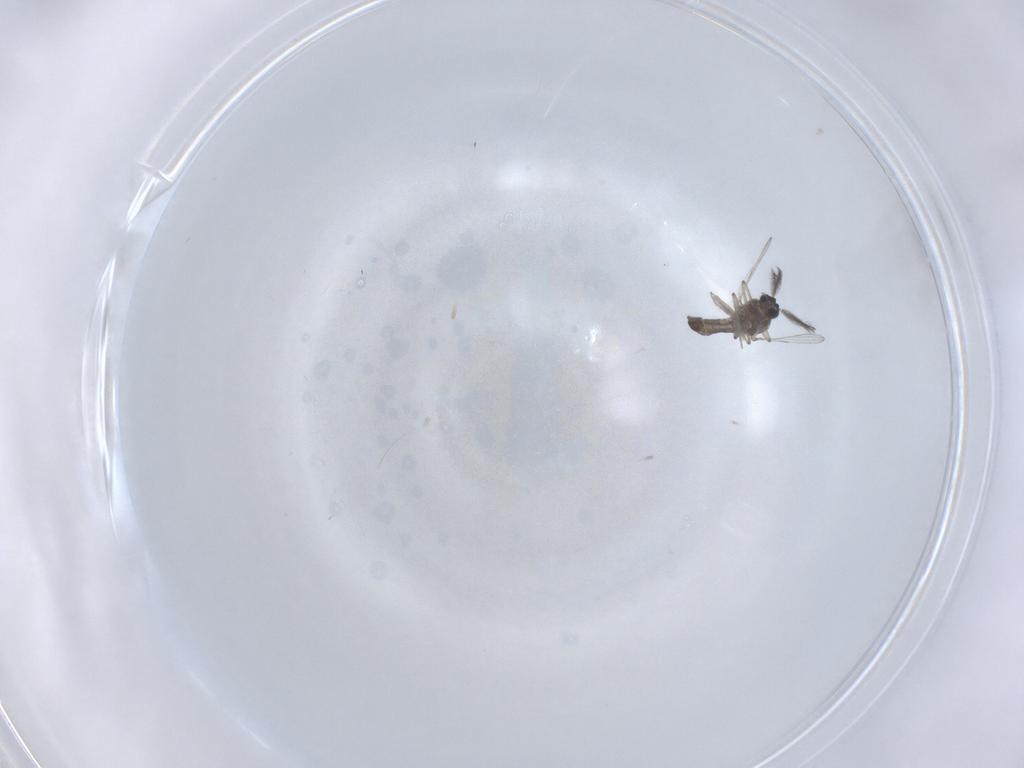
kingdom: Animalia
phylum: Arthropoda
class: Insecta
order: Diptera
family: Ceratopogonidae
